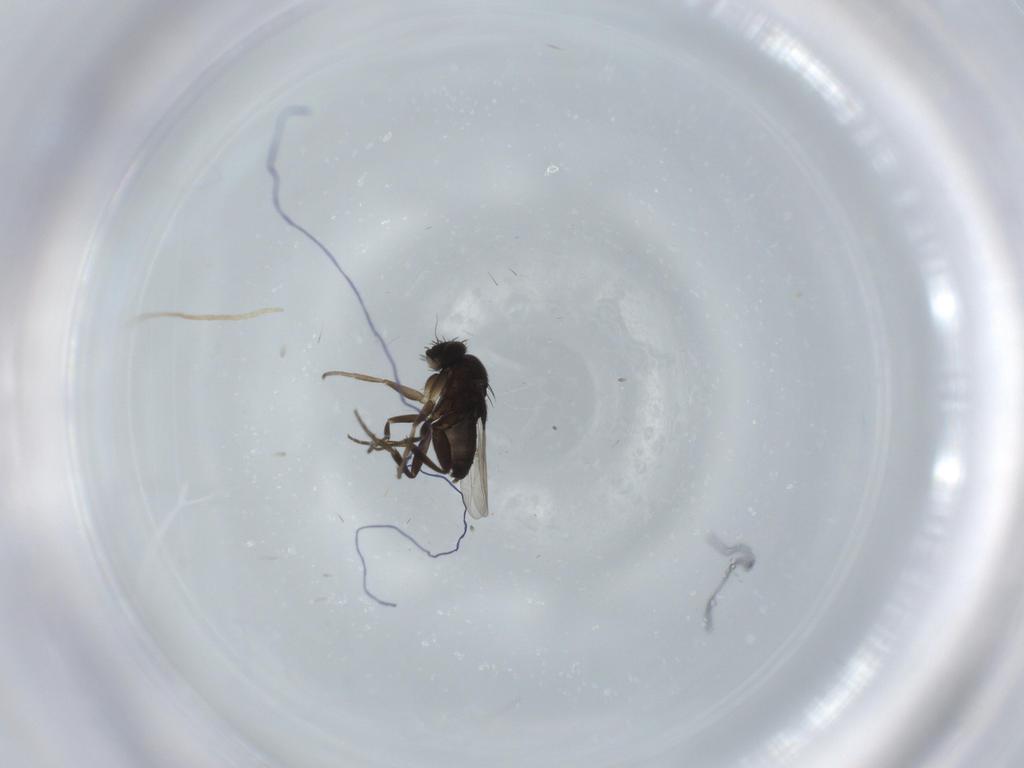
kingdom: Animalia
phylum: Arthropoda
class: Insecta
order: Diptera
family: Phoridae
